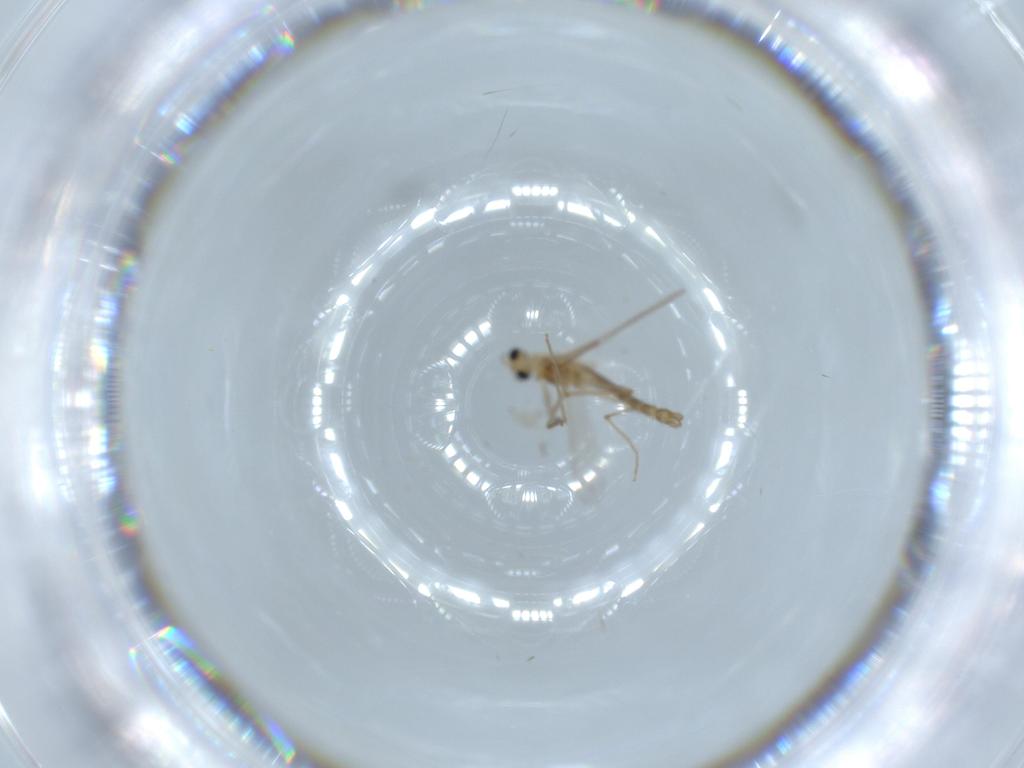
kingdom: Animalia
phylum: Arthropoda
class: Insecta
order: Diptera
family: Chironomidae
